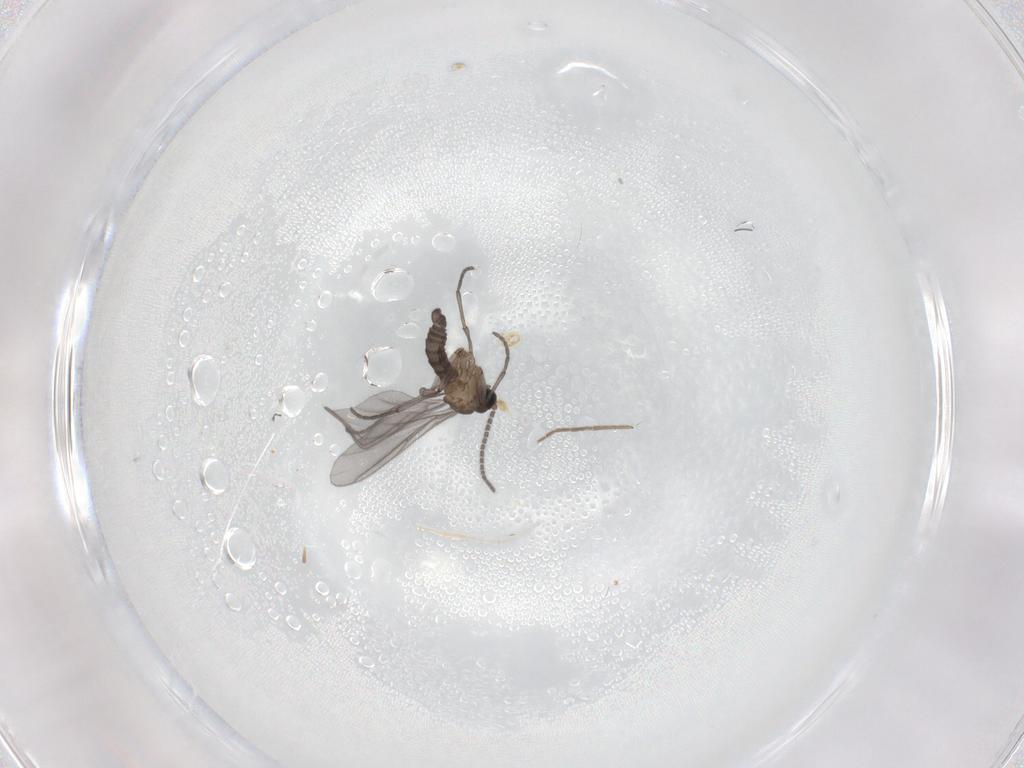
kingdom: Animalia
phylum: Arthropoda
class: Insecta
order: Diptera
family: Sciaridae
